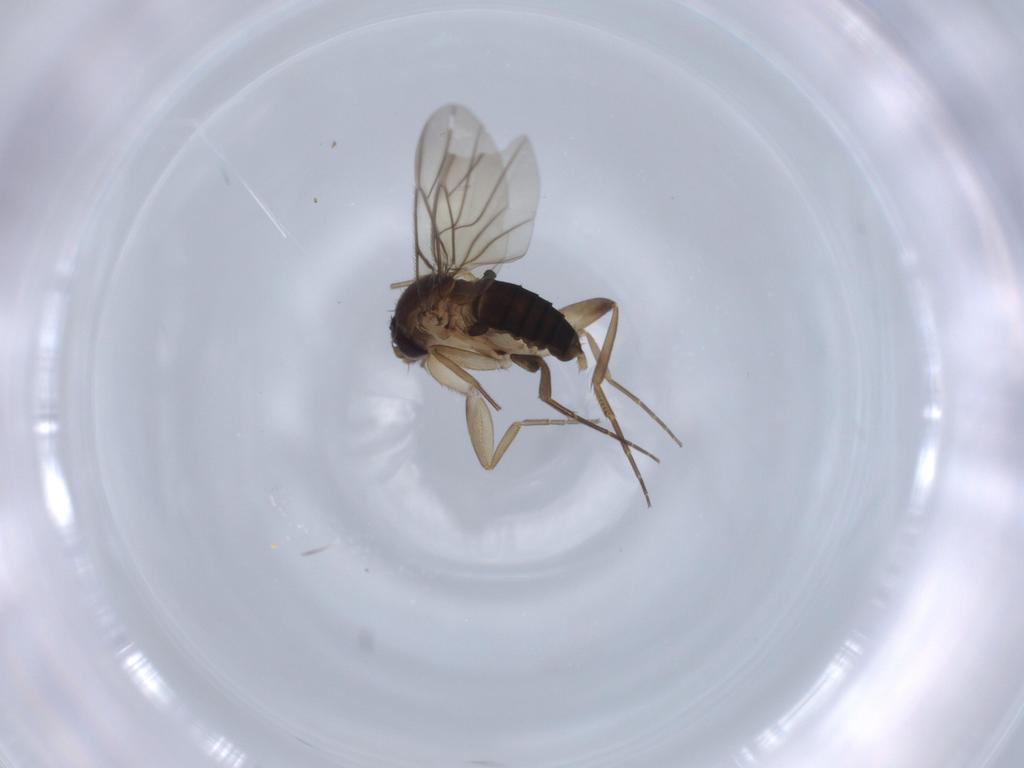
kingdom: Animalia
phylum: Arthropoda
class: Insecta
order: Diptera
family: Phoridae
